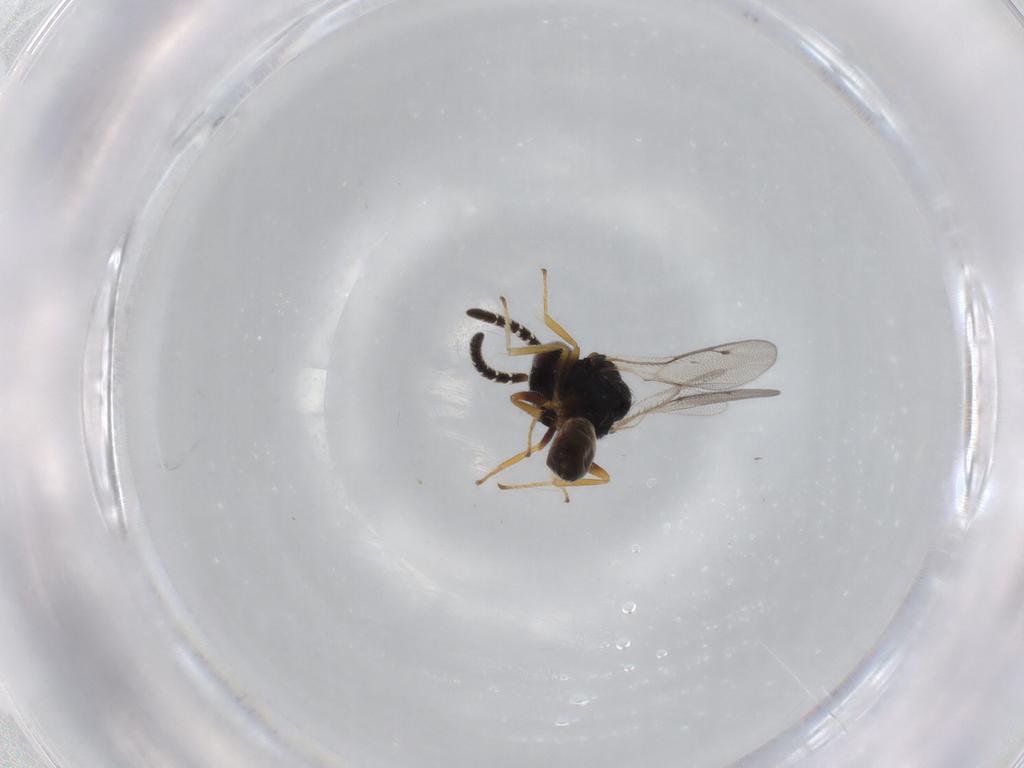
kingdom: Animalia
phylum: Arthropoda
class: Insecta
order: Hymenoptera
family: Agaonidae
